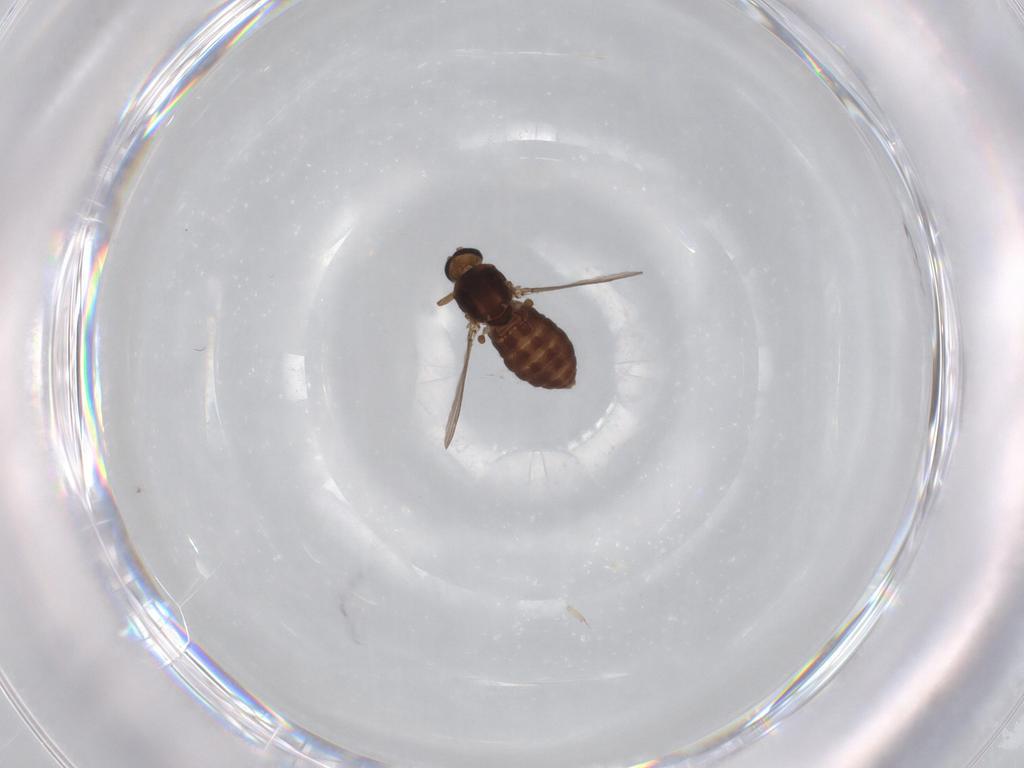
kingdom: Animalia
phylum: Arthropoda
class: Insecta
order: Diptera
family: Ceratopogonidae
